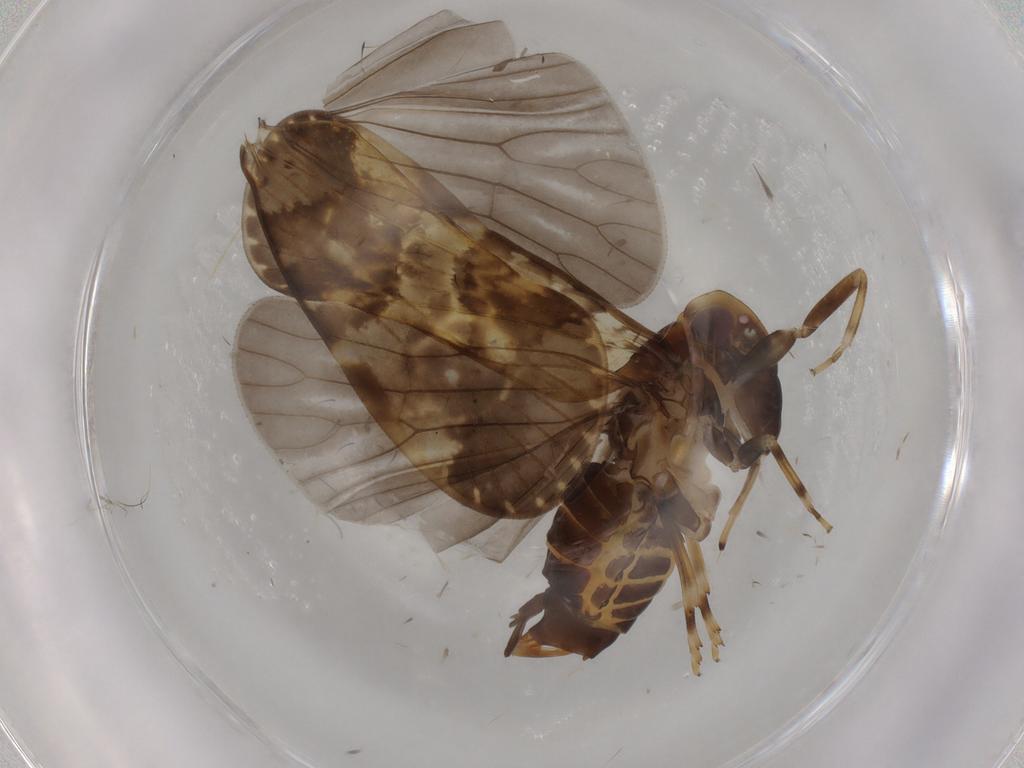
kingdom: Animalia
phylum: Arthropoda
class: Insecta
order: Hemiptera
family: Cixiidae
